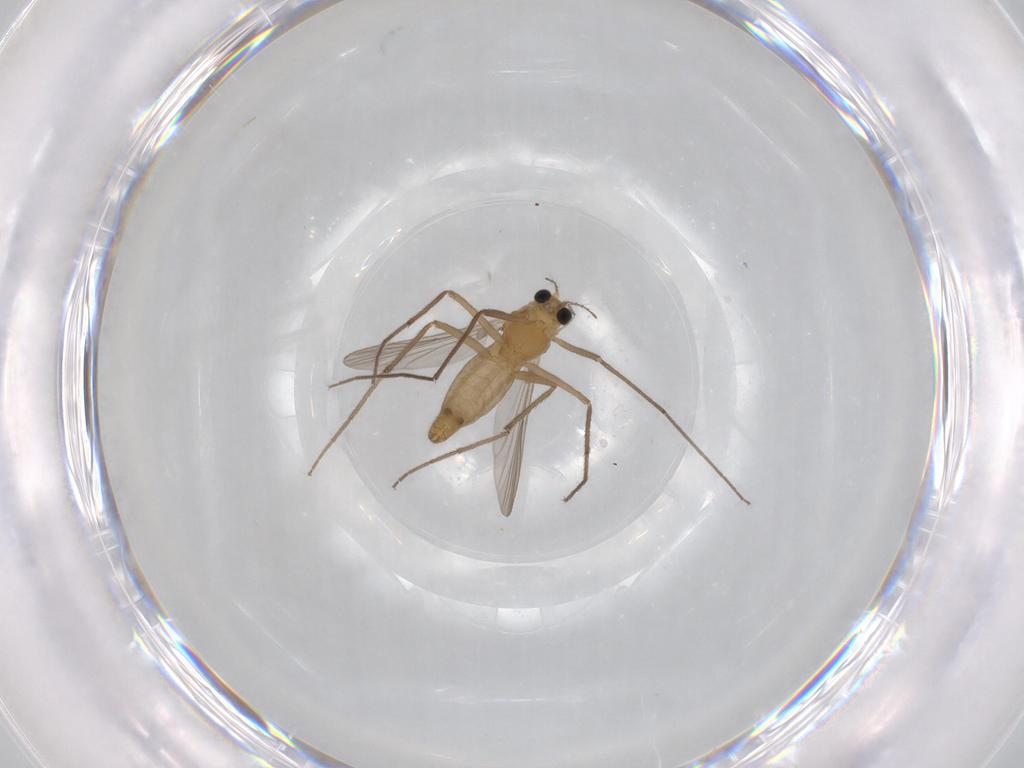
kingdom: Animalia
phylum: Arthropoda
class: Insecta
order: Diptera
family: Chironomidae
